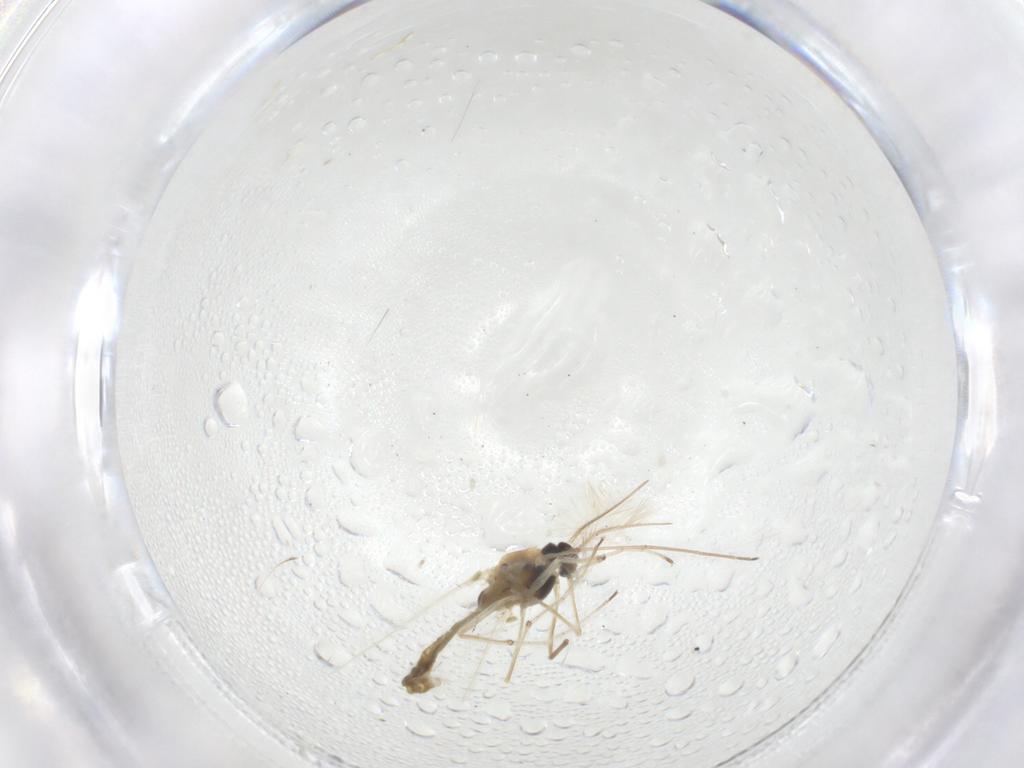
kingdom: Animalia
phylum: Arthropoda
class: Insecta
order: Diptera
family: Chironomidae
